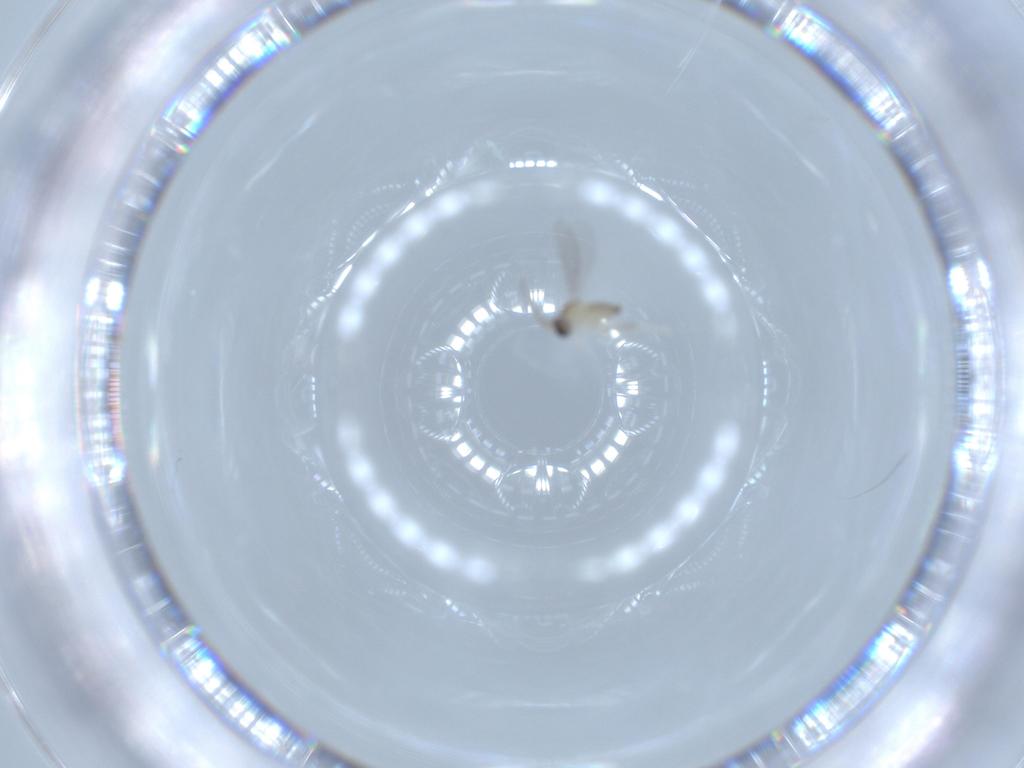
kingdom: Animalia
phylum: Arthropoda
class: Insecta
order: Diptera
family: Cecidomyiidae
